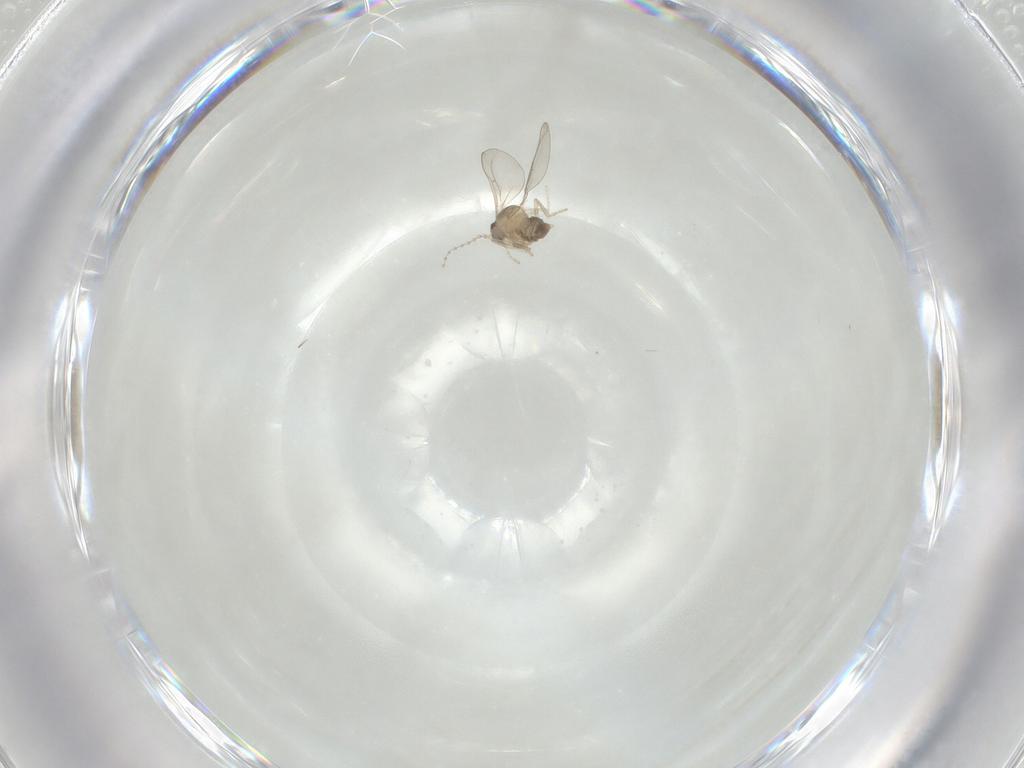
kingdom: Animalia
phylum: Arthropoda
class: Insecta
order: Diptera
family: Cecidomyiidae
